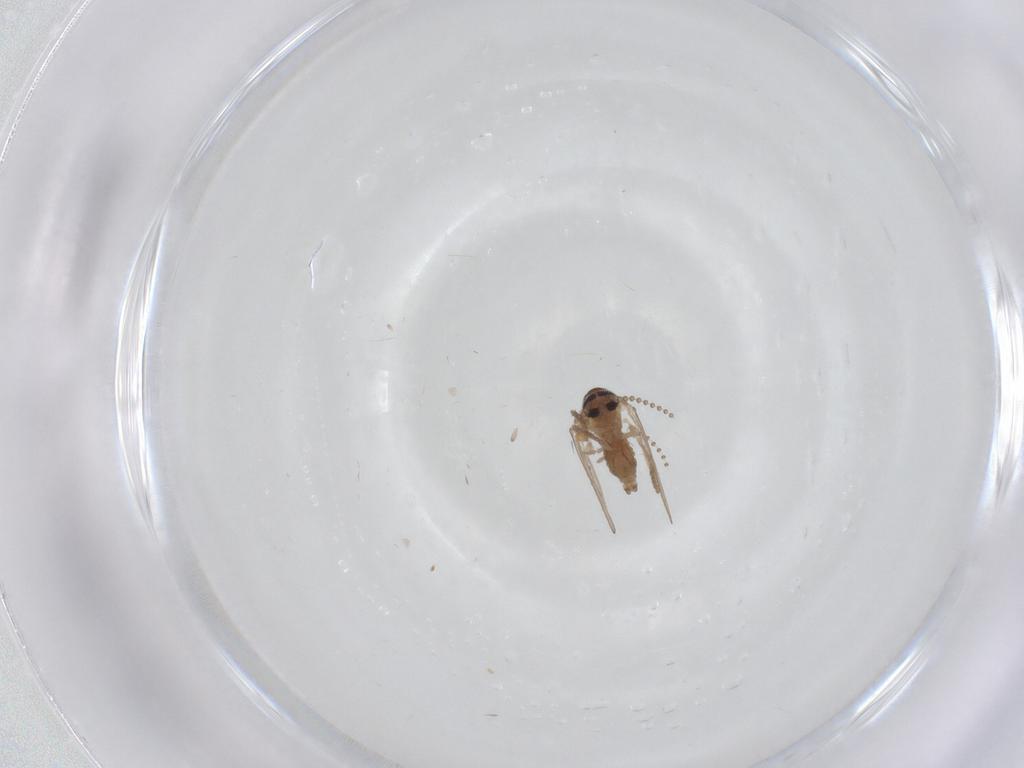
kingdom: Animalia
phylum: Arthropoda
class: Insecta
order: Diptera
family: Psychodidae
